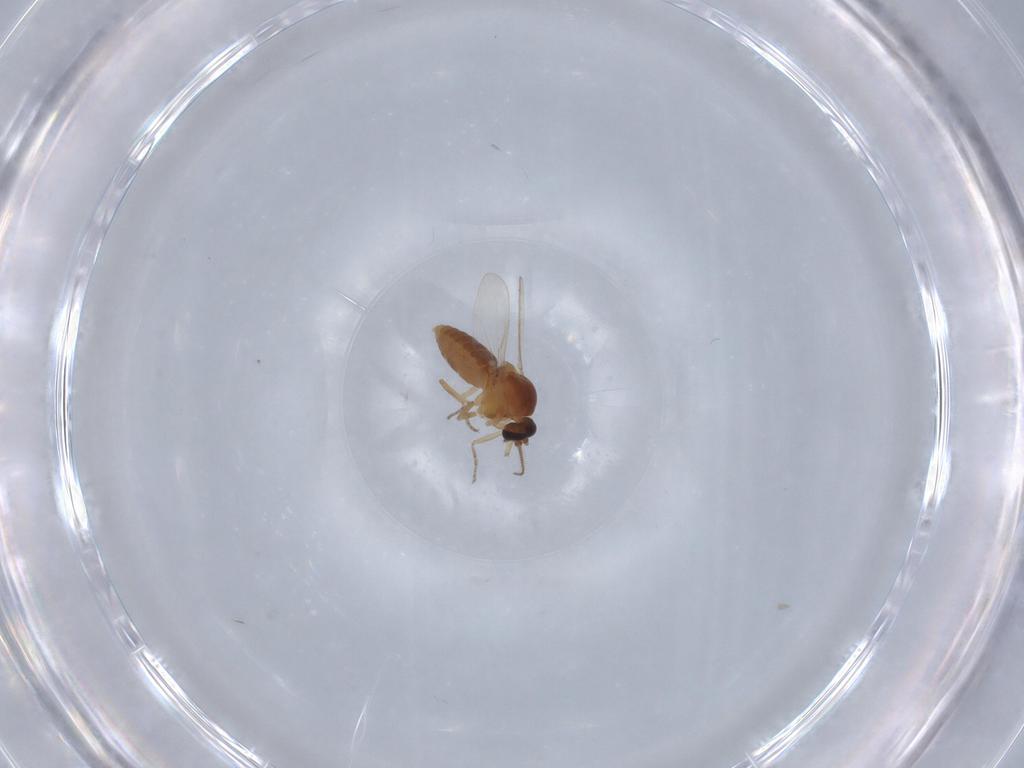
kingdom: Animalia
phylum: Arthropoda
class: Insecta
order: Diptera
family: Ceratopogonidae
